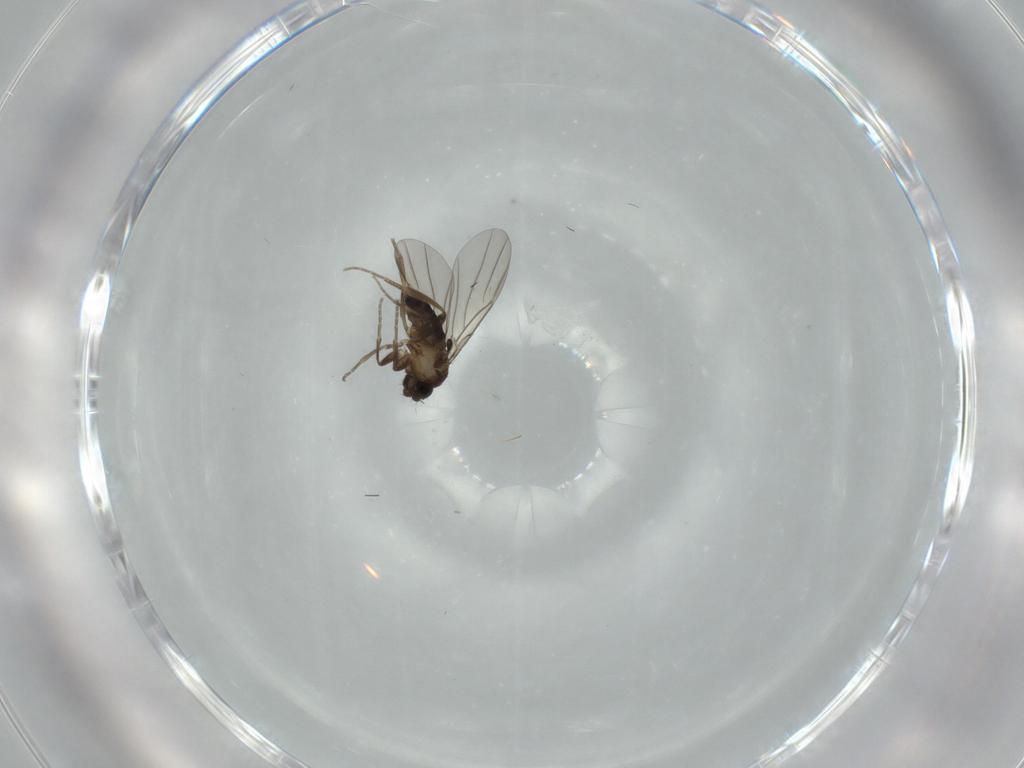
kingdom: Animalia
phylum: Arthropoda
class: Insecta
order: Diptera
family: Phoridae
